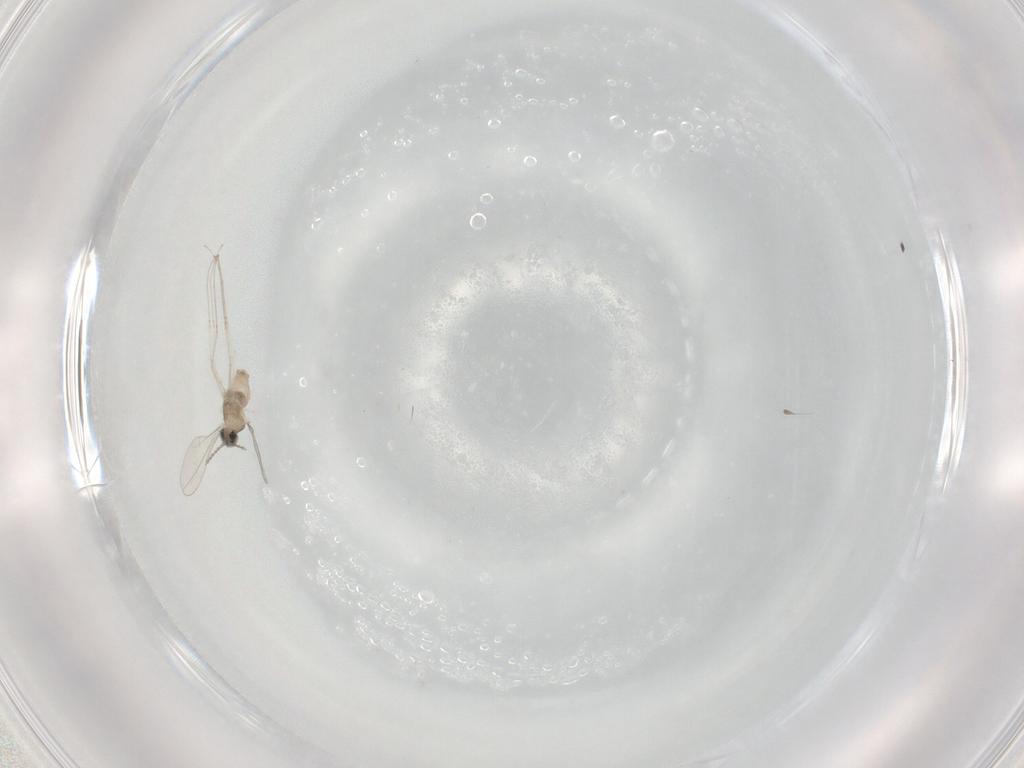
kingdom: Animalia
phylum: Arthropoda
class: Insecta
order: Diptera
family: Cecidomyiidae
